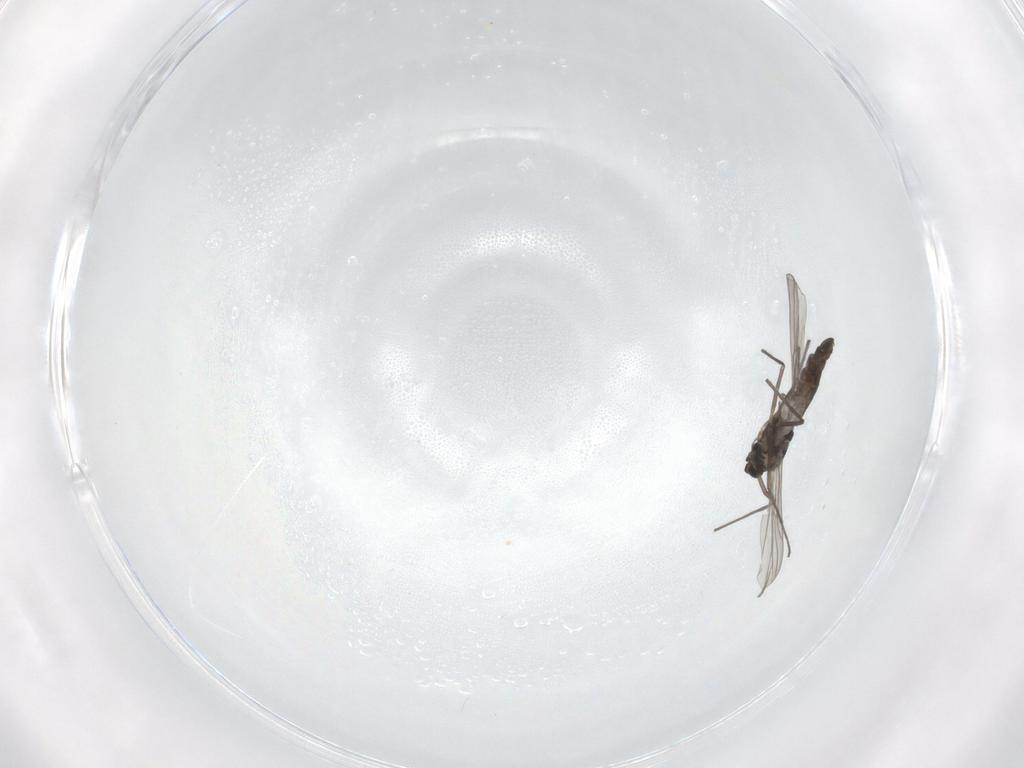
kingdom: Animalia
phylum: Arthropoda
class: Insecta
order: Diptera
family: Chironomidae
